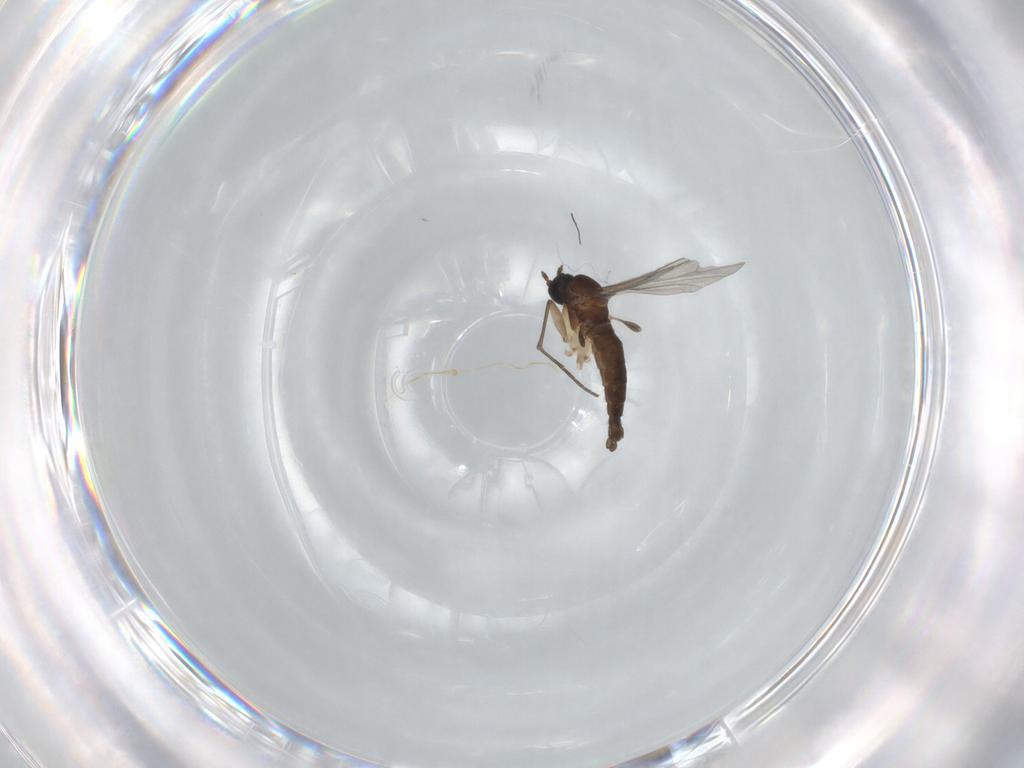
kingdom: Animalia
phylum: Arthropoda
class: Insecta
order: Diptera
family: Sciaridae
